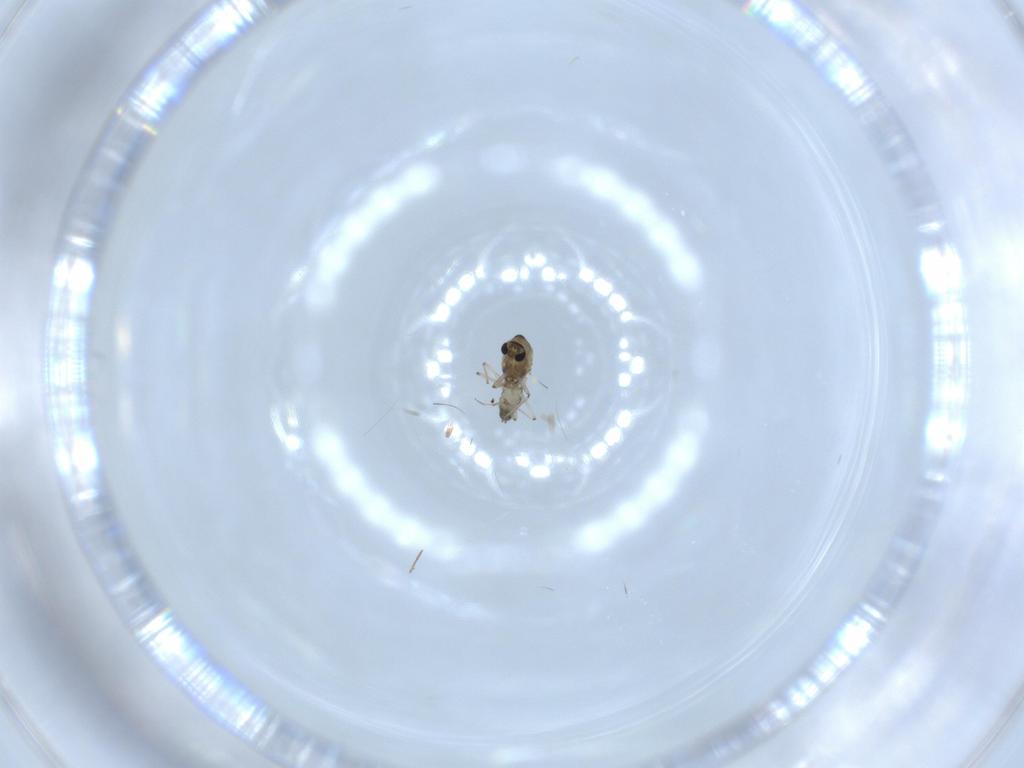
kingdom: Animalia
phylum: Arthropoda
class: Insecta
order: Diptera
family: Chironomidae
